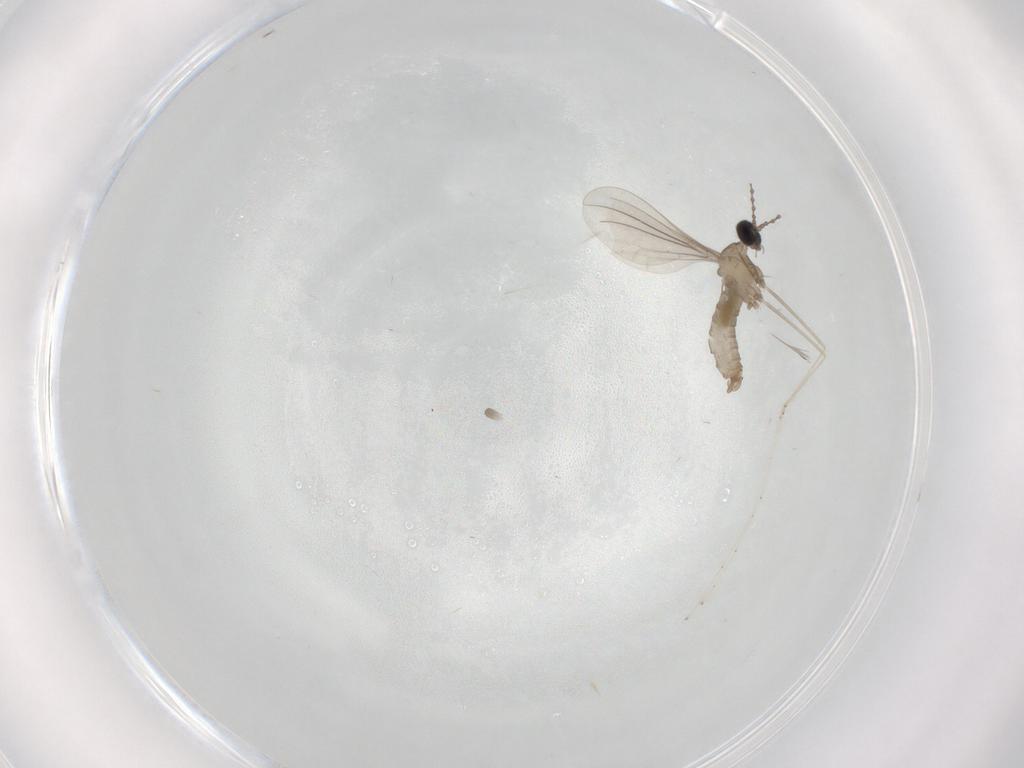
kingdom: Animalia
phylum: Arthropoda
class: Insecta
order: Diptera
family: Cecidomyiidae
